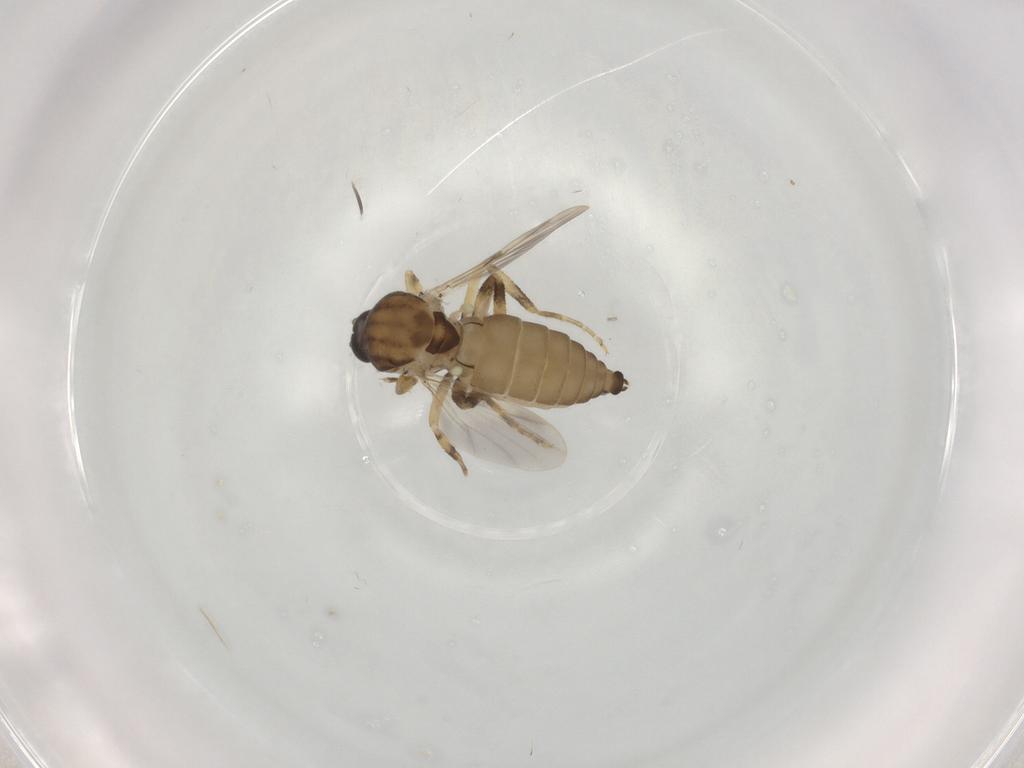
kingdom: Animalia
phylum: Arthropoda
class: Insecta
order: Diptera
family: Ceratopogonidae
